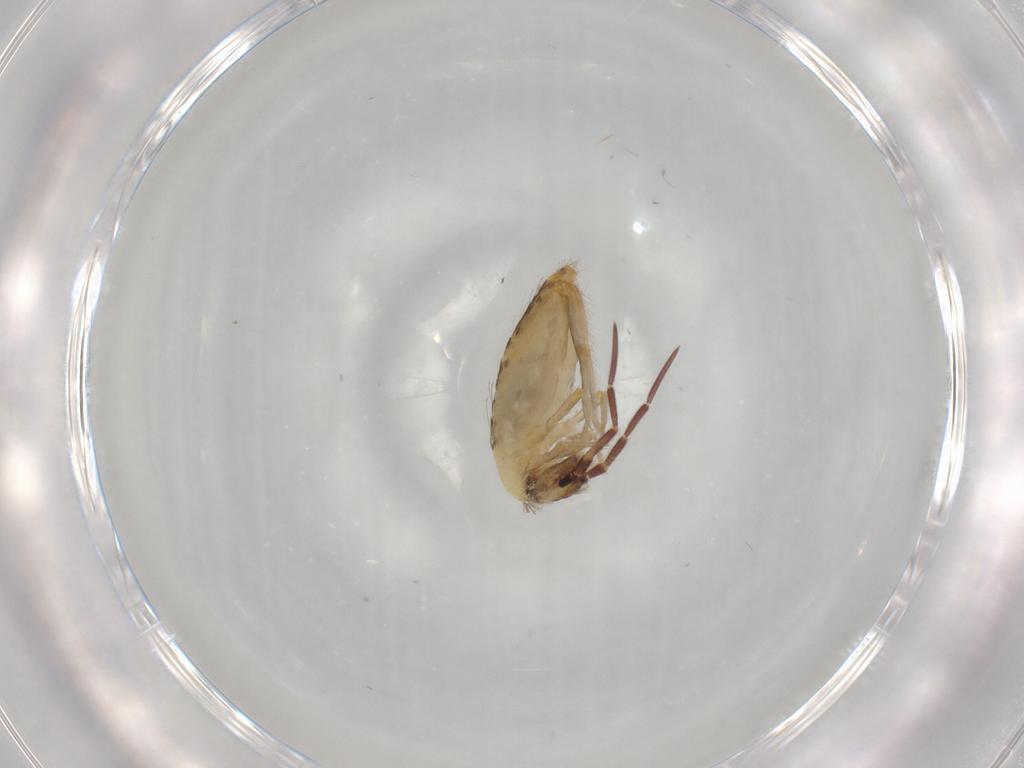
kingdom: Animalia
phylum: Arthropoda
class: Collembola
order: Entomobryomorpha
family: Entomobryidae
